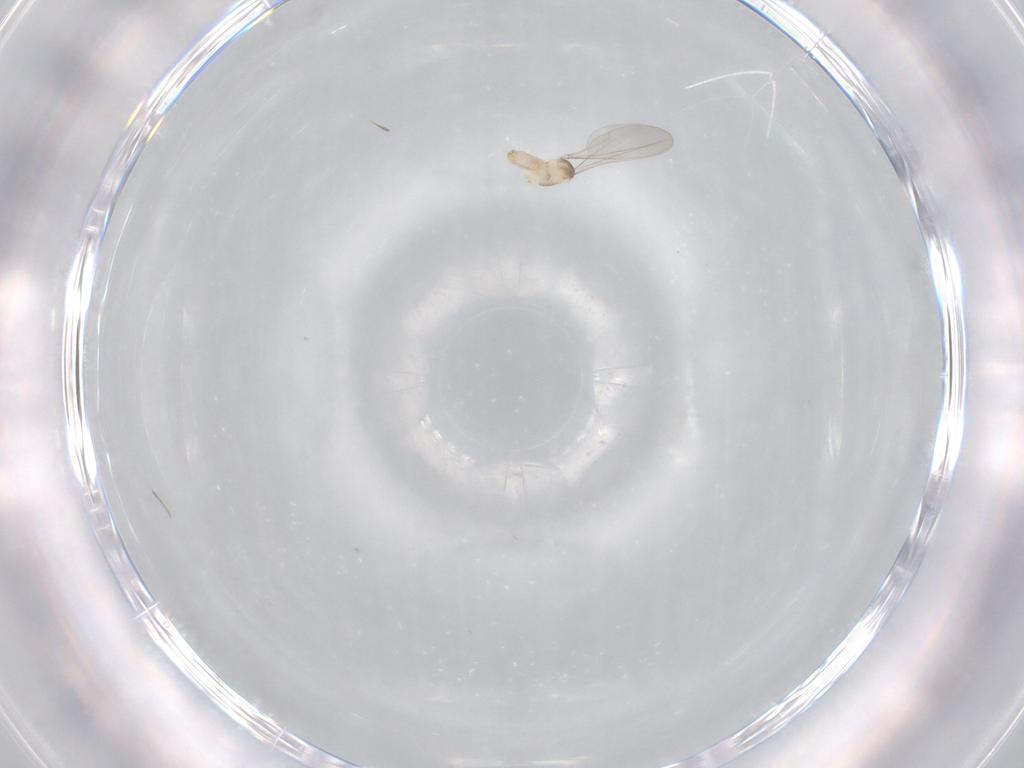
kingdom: Animalia
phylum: Arthropoda
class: Insecta
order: Diptera
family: Cecidomyiidae
